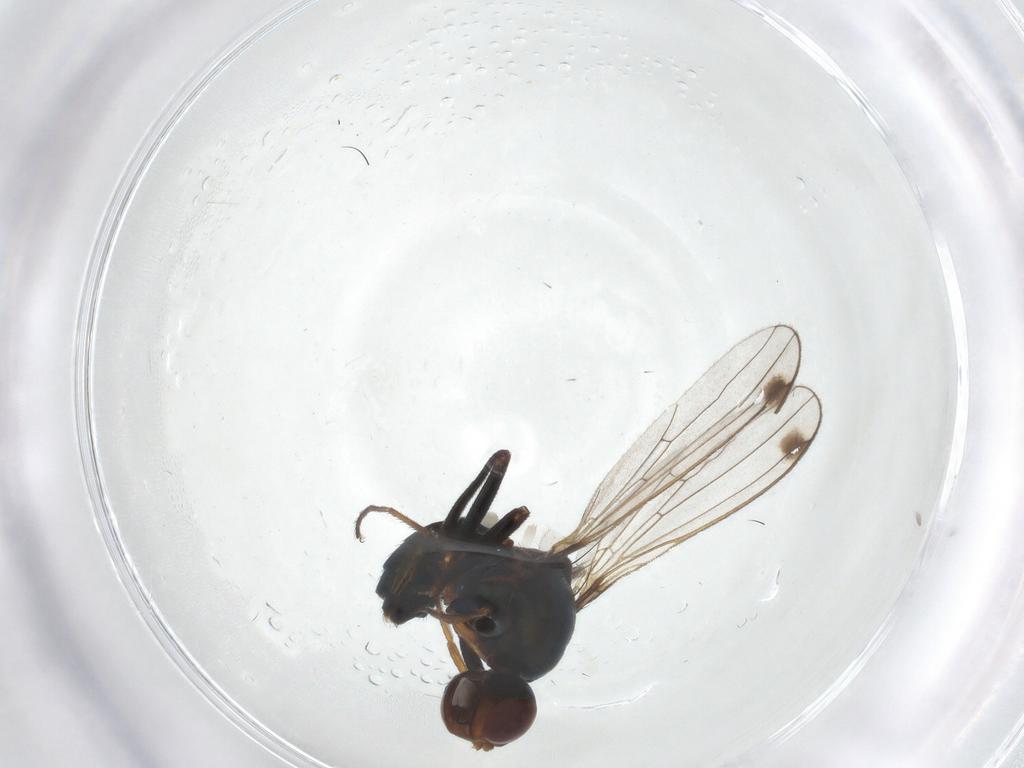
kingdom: Animalia
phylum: Arthropoda
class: Insecta
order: Diptera
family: Sepsidae
